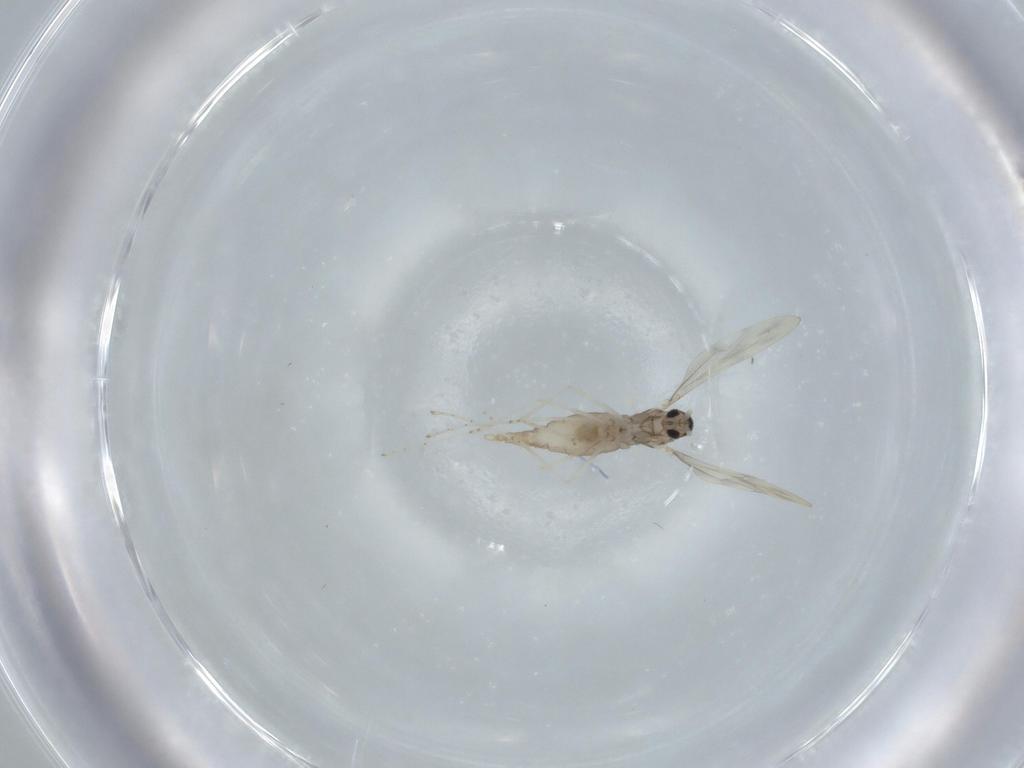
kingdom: Animalia
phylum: Arthropoda
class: Insecta
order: Diptera
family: Cecidomyiidae
